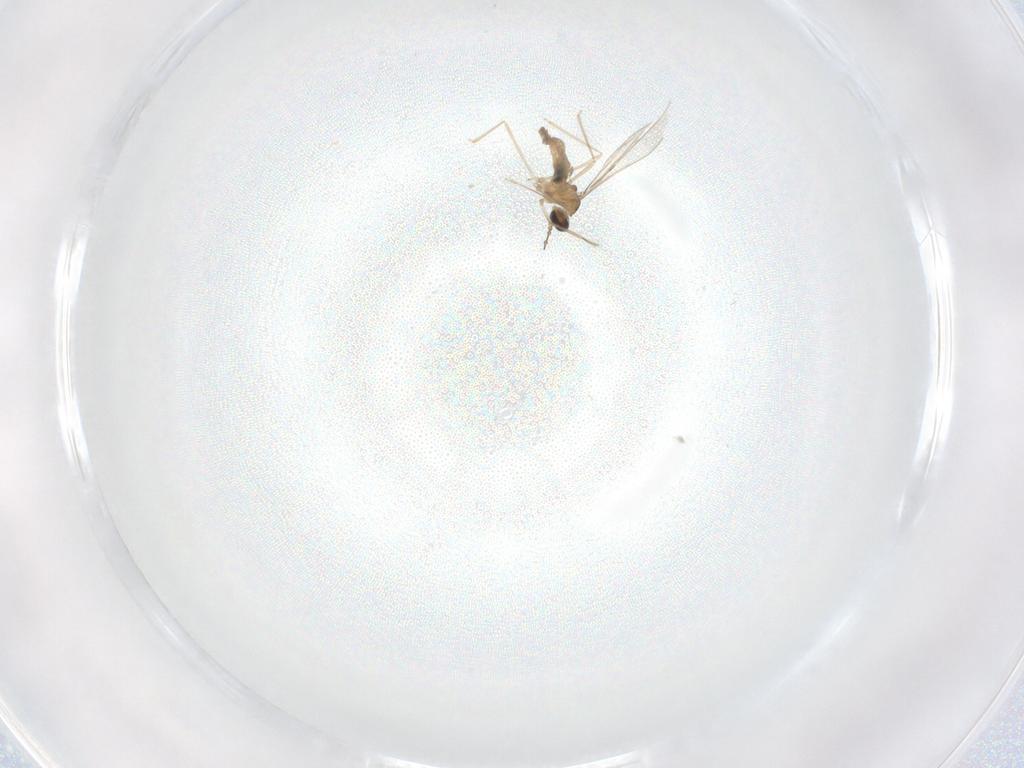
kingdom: Animalia
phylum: Arthropoda
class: Insecta
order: Diptera
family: Cecidomyiidae
